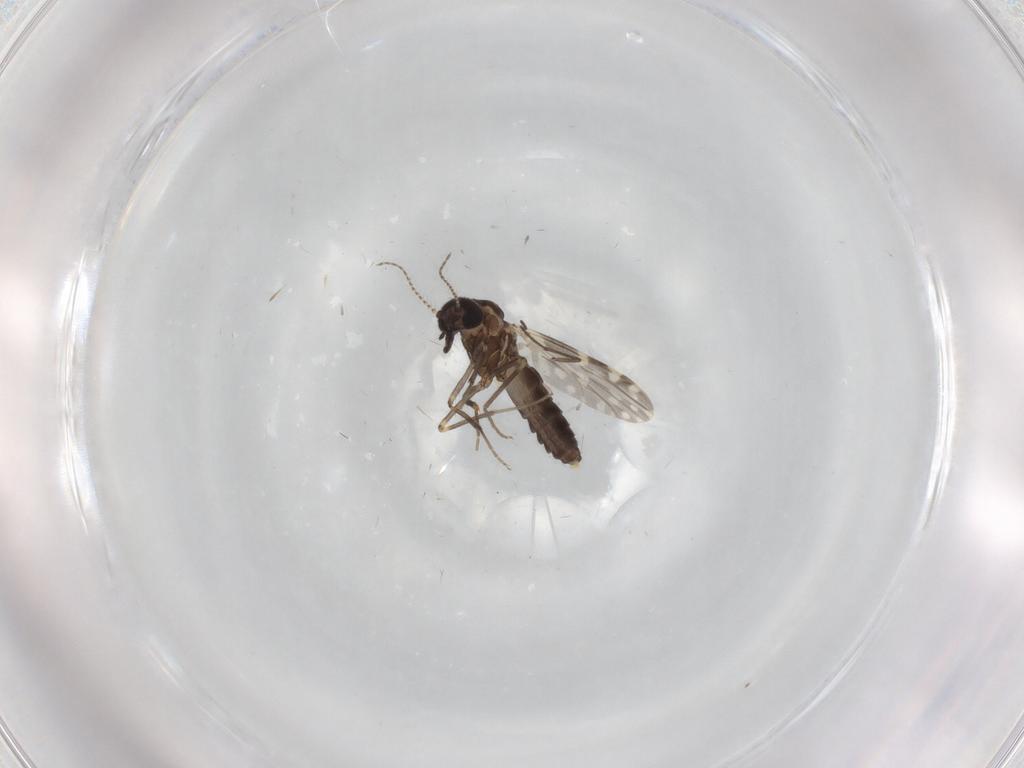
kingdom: Animalia
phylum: Arthropoda
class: Insecta
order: Diptera
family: Ceratopogonidae
